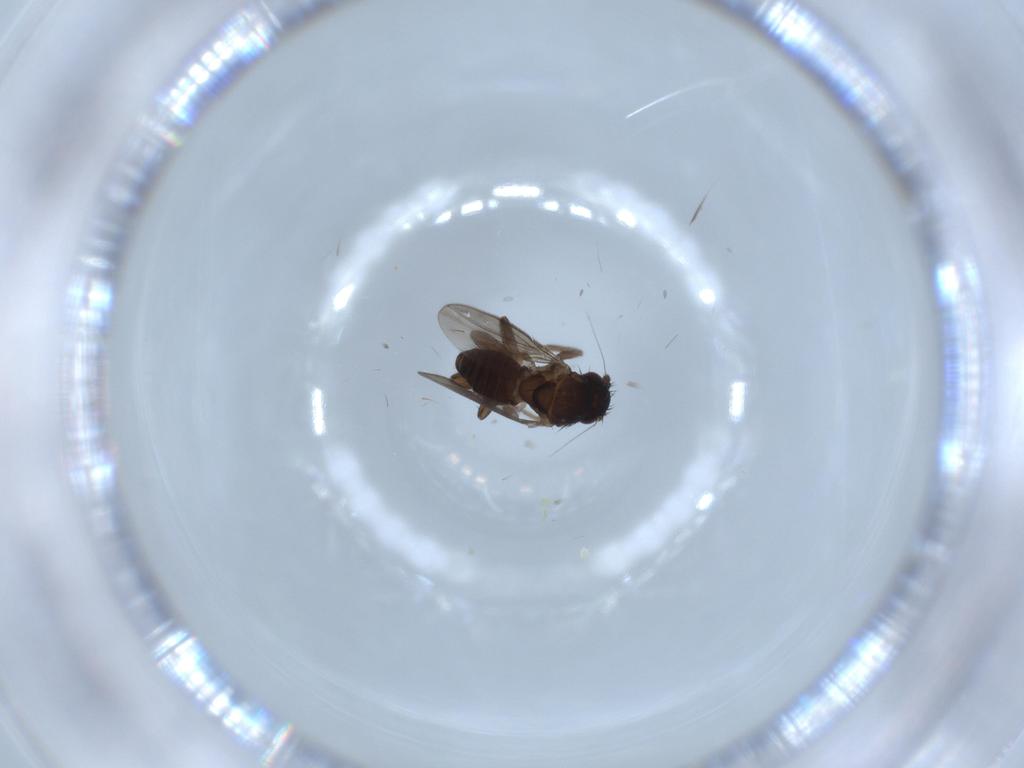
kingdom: Animalia
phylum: Arthropoda
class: Insecta
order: Diptera
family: Sphaeroceridae
